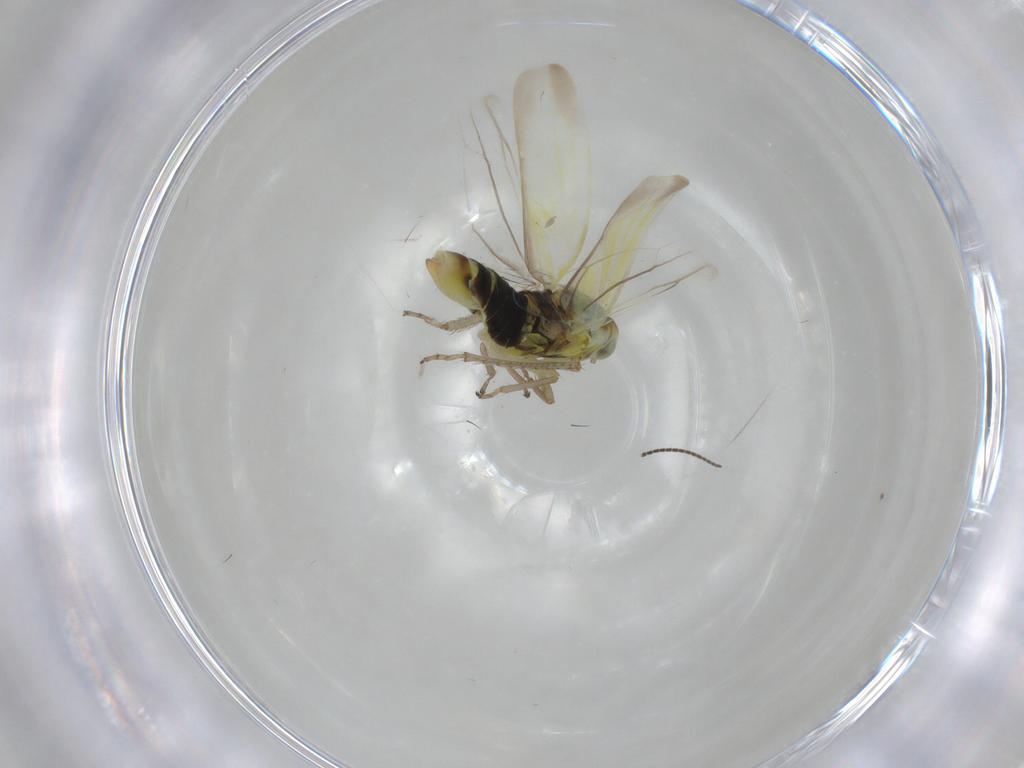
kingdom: Animalia
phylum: Arthropoda
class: Insecta
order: Hemiptera
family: Cicadellidae
